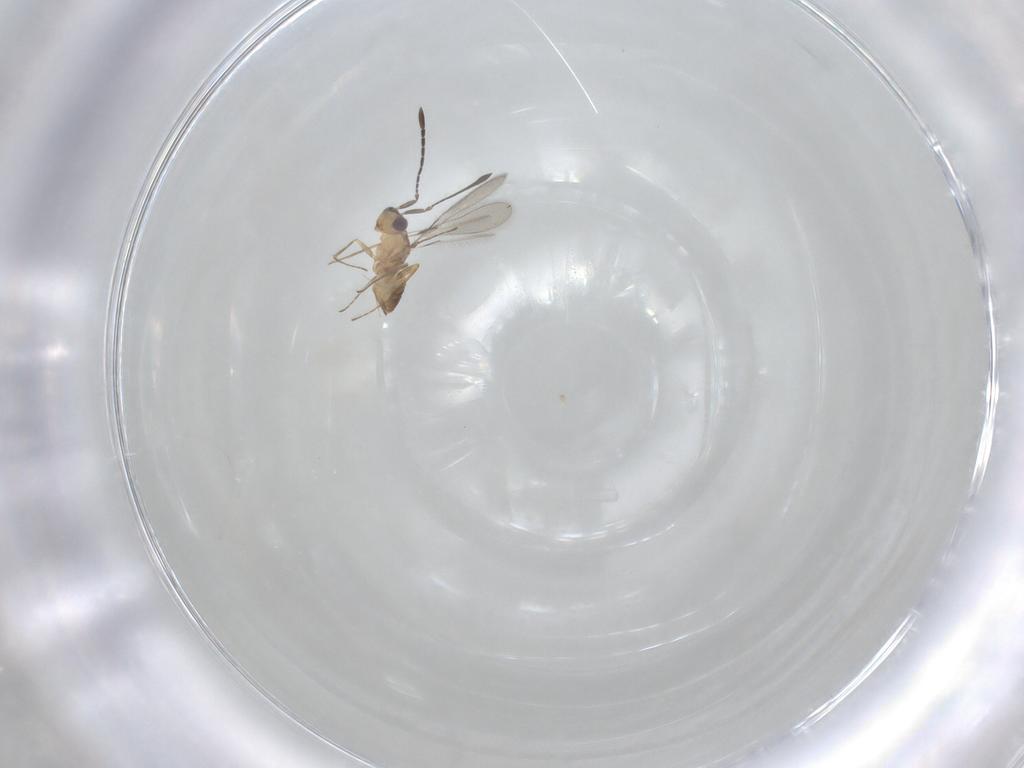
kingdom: Animalia
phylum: Arthropoda
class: Insecta
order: Hymenoptera
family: Mymaridae
